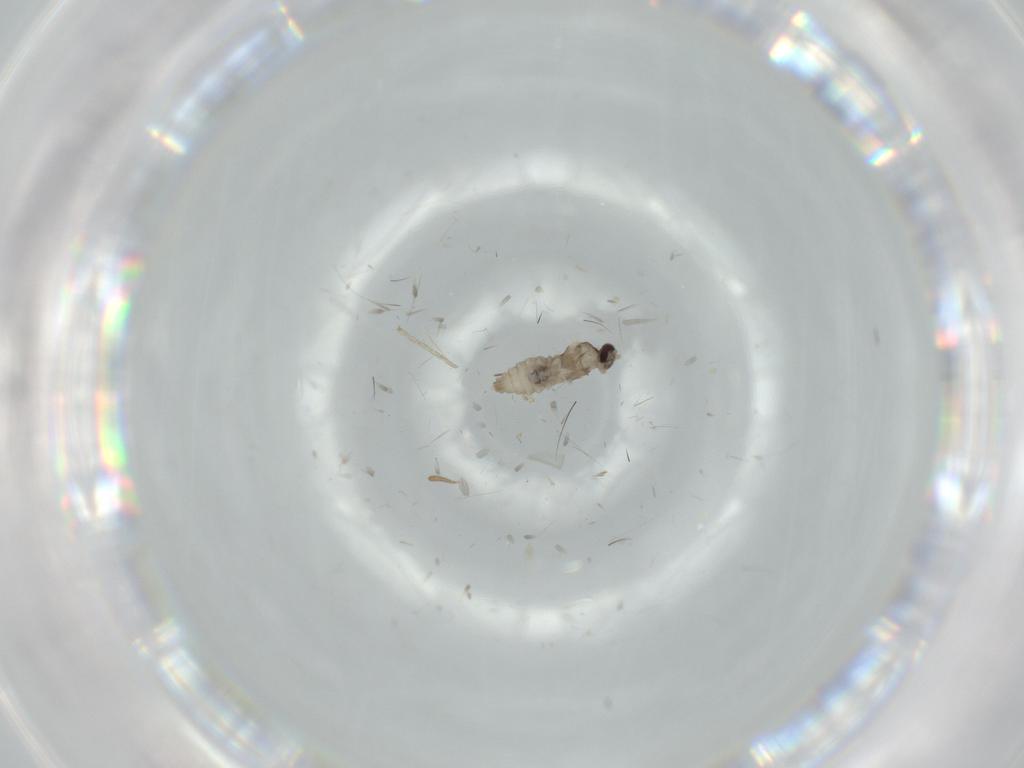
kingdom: Animalia
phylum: Arthropoda
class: Insecta
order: Diptera
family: Cecidomyiidae
